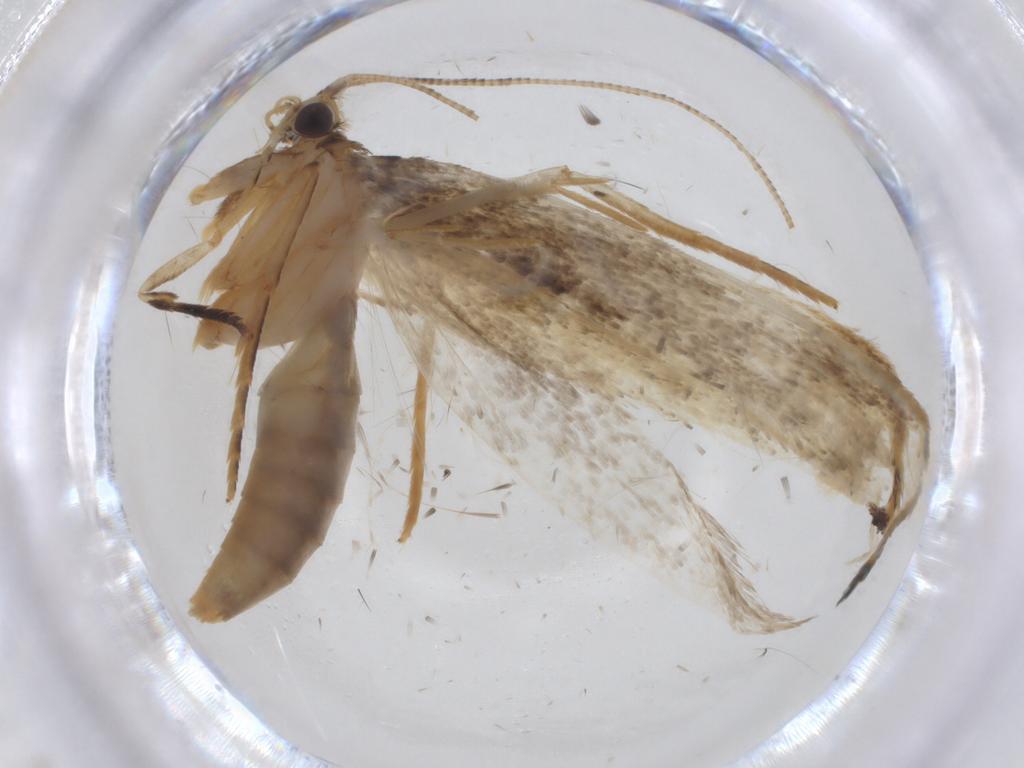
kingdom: Animalia
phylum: Arthropoda
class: Insecta
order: Lepidoptera
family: Tineidae
